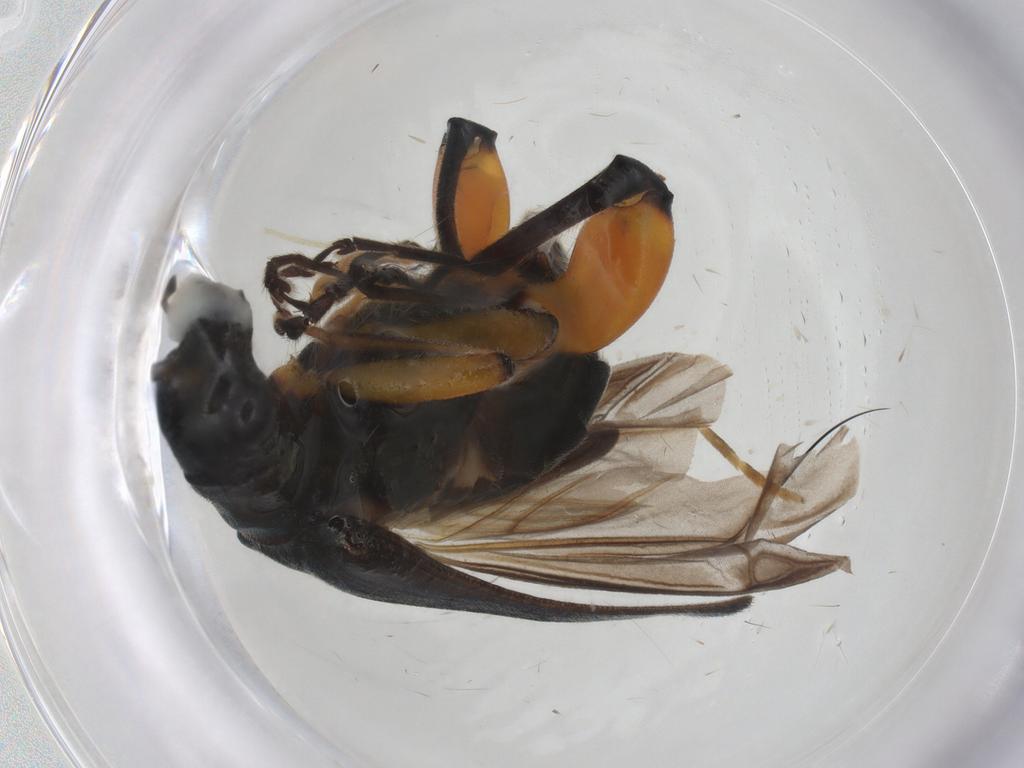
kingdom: Animalia
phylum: Arthropoda
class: Insecta
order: Coleoptera
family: Oedemeridae
